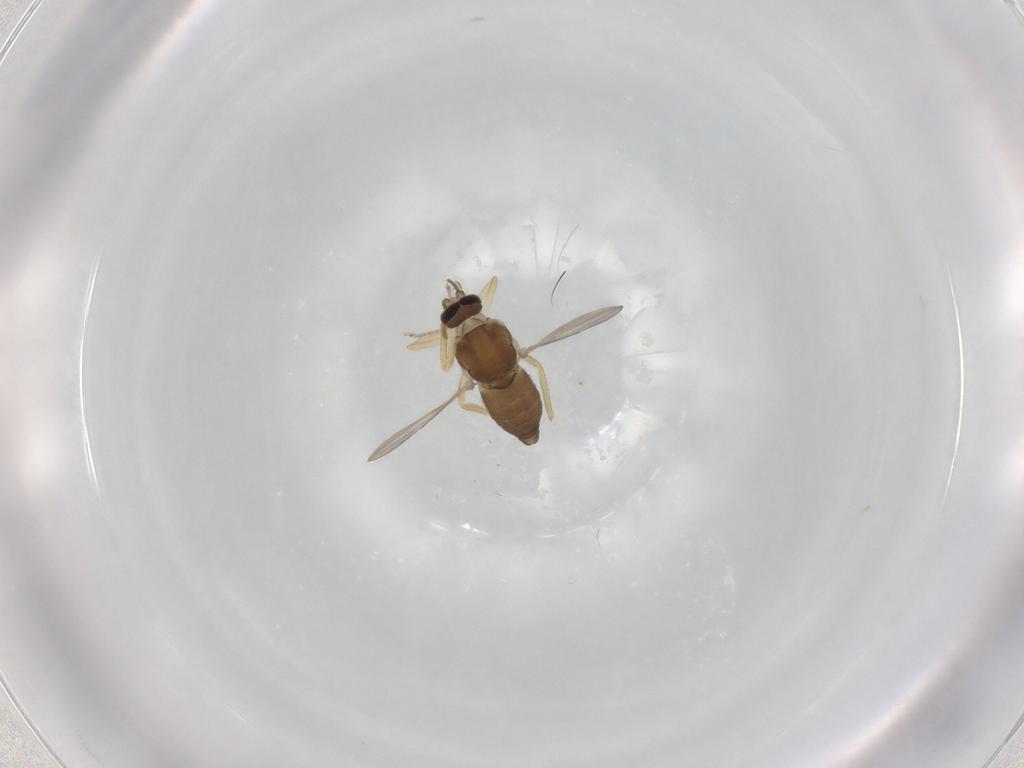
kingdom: Animalia
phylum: Arthropoda
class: Insecta
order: Diptera
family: Ceratopogonidae
